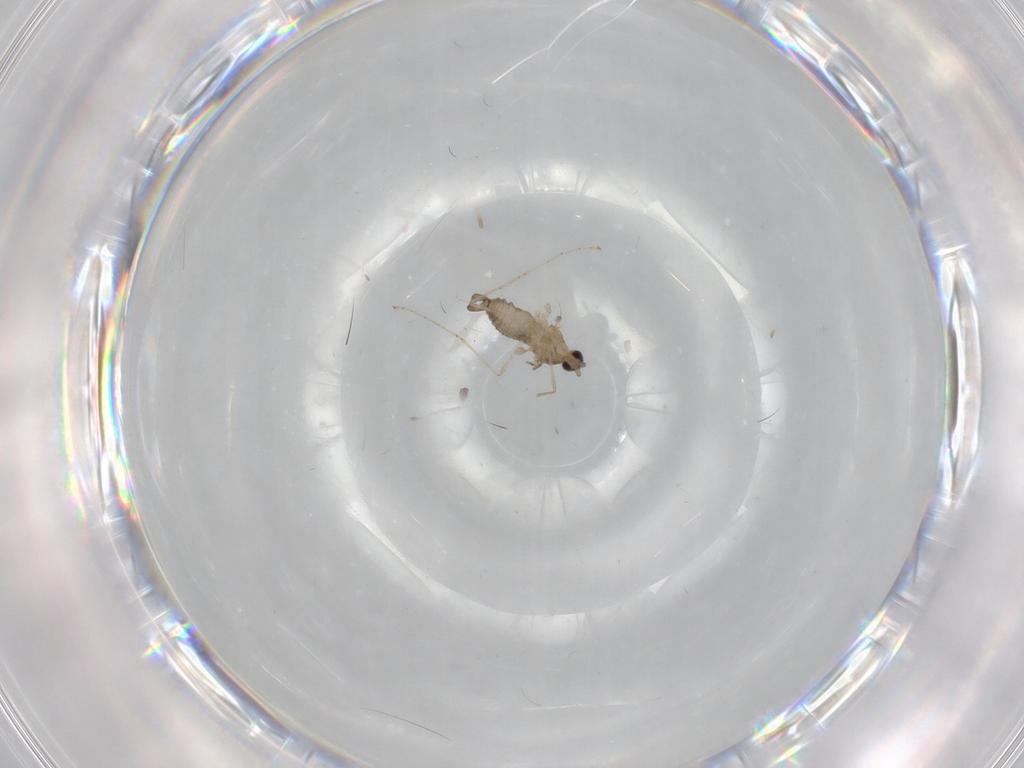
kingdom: Animalia
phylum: Arthropoda
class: Insecta
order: Diptera
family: Cecidomyiidae
